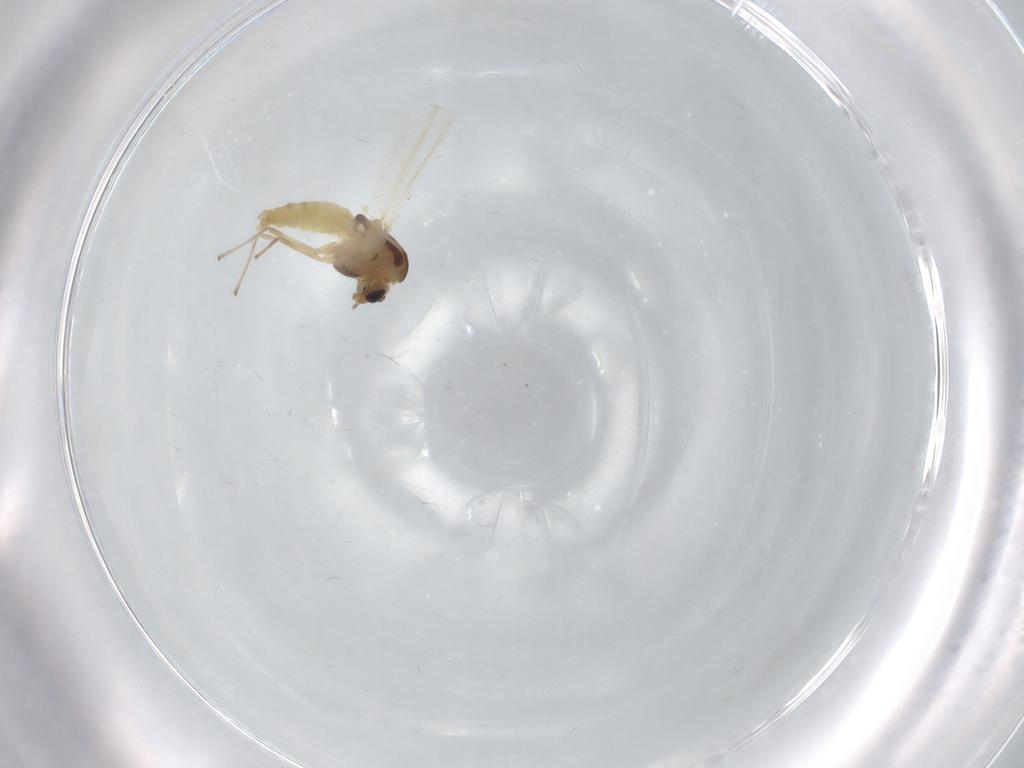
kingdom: Animalia
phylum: Arthropoda
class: Insecta
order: Diptera
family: Chironomidae
